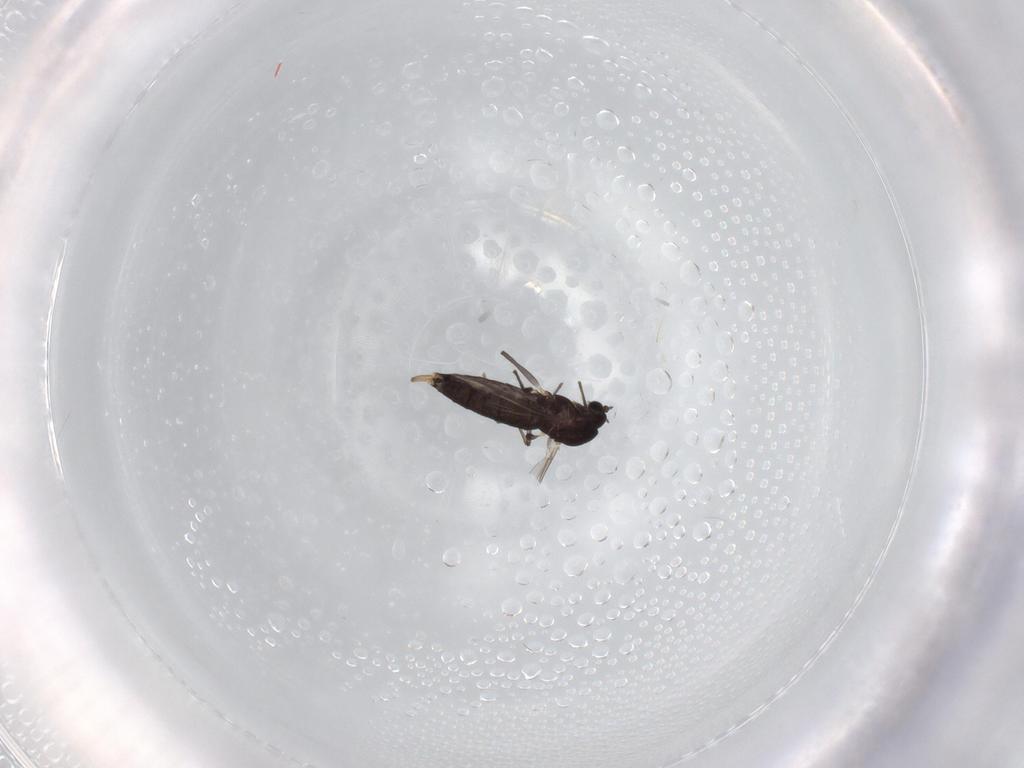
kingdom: Animalia
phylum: Arthropoda
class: Insecta
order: Diptera
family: Chironomidae
